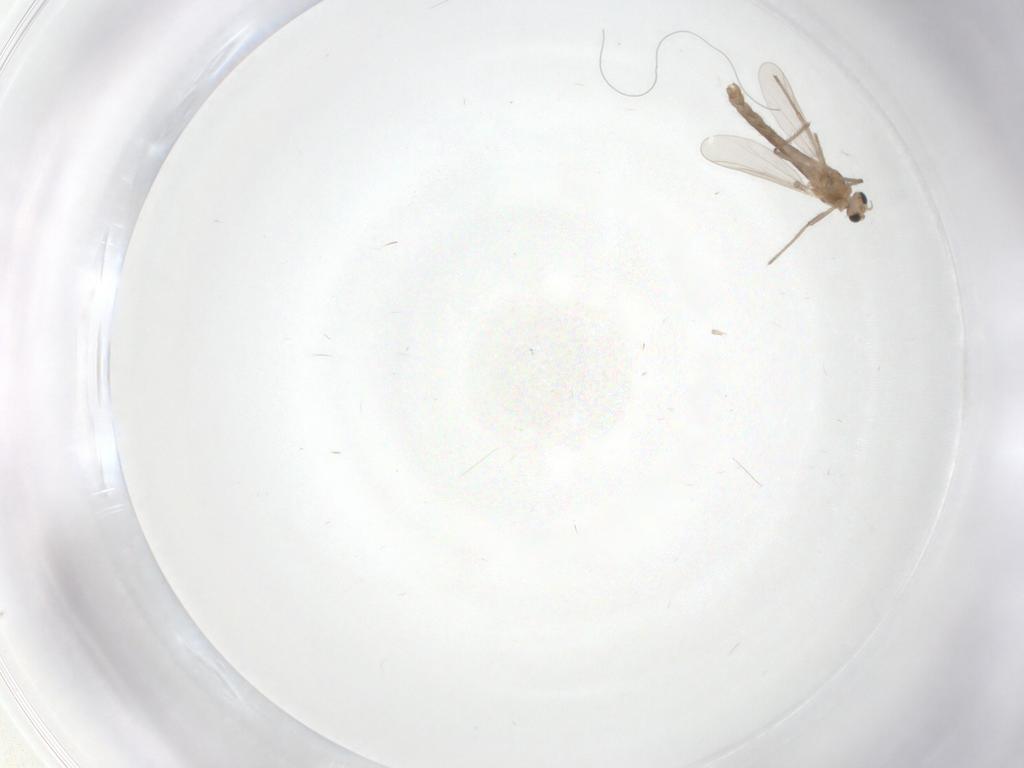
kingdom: Animalia
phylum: Arthropoda
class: Insecta
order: Diptera
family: Chironomidae
